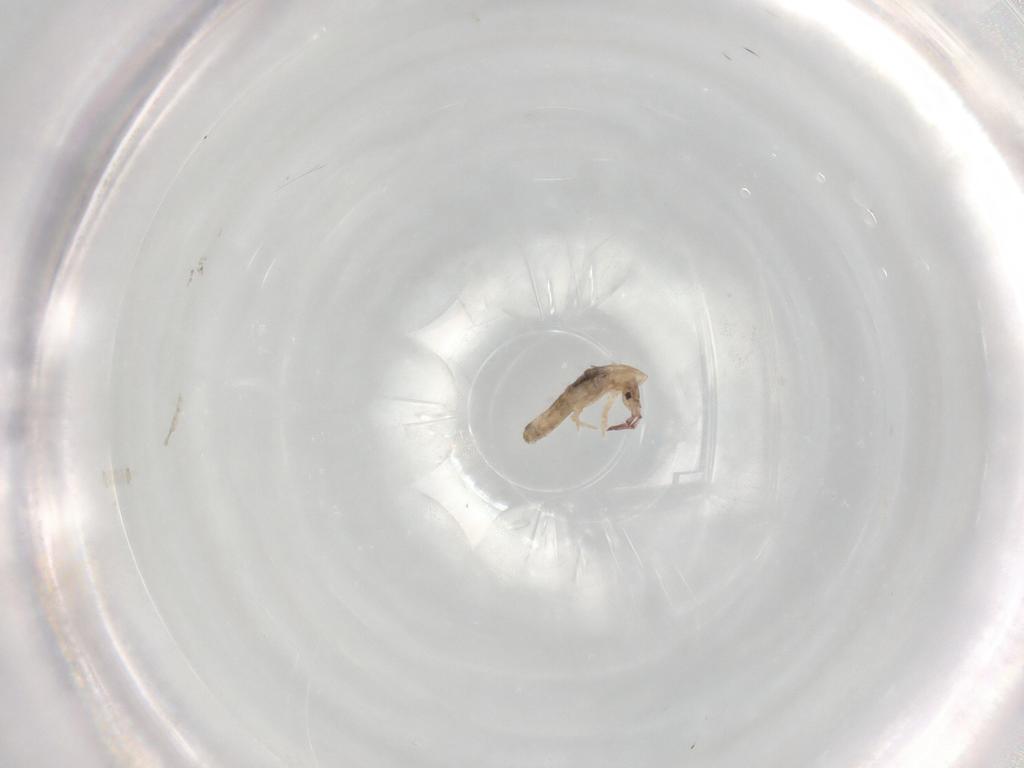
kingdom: Animalia
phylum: Arthropoda
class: Collembola
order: Entomobryomorpha
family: Entomobryidae
